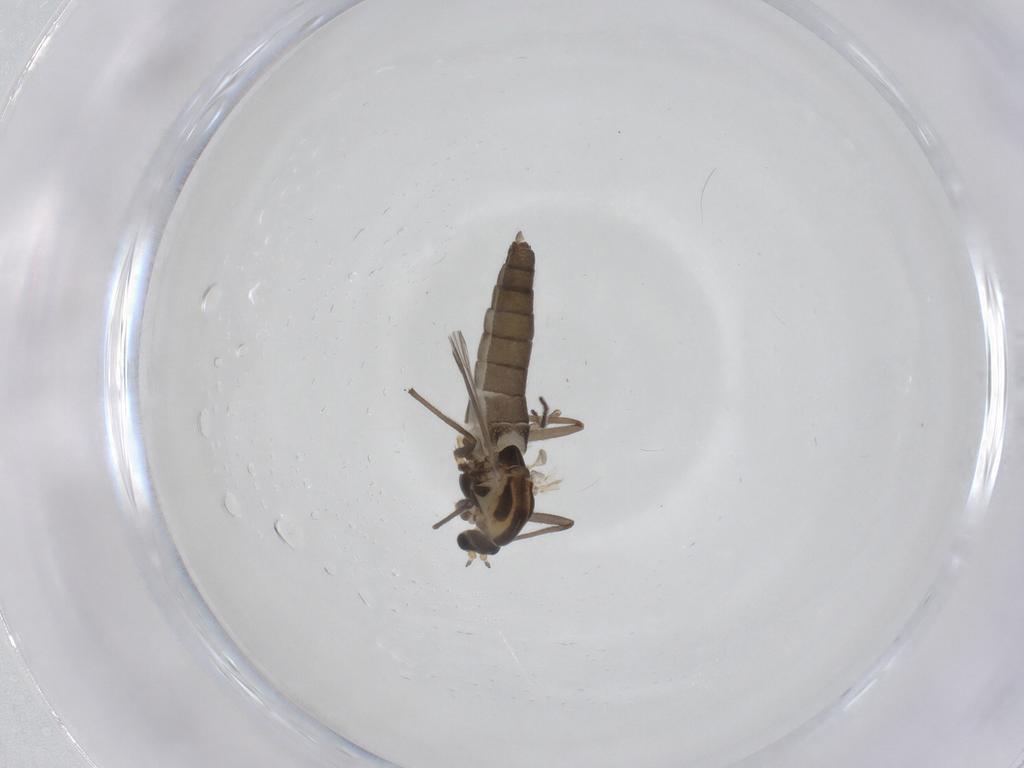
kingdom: Animalia
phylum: Arthropoda
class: Insecta
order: Diptera
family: Chironomidae
